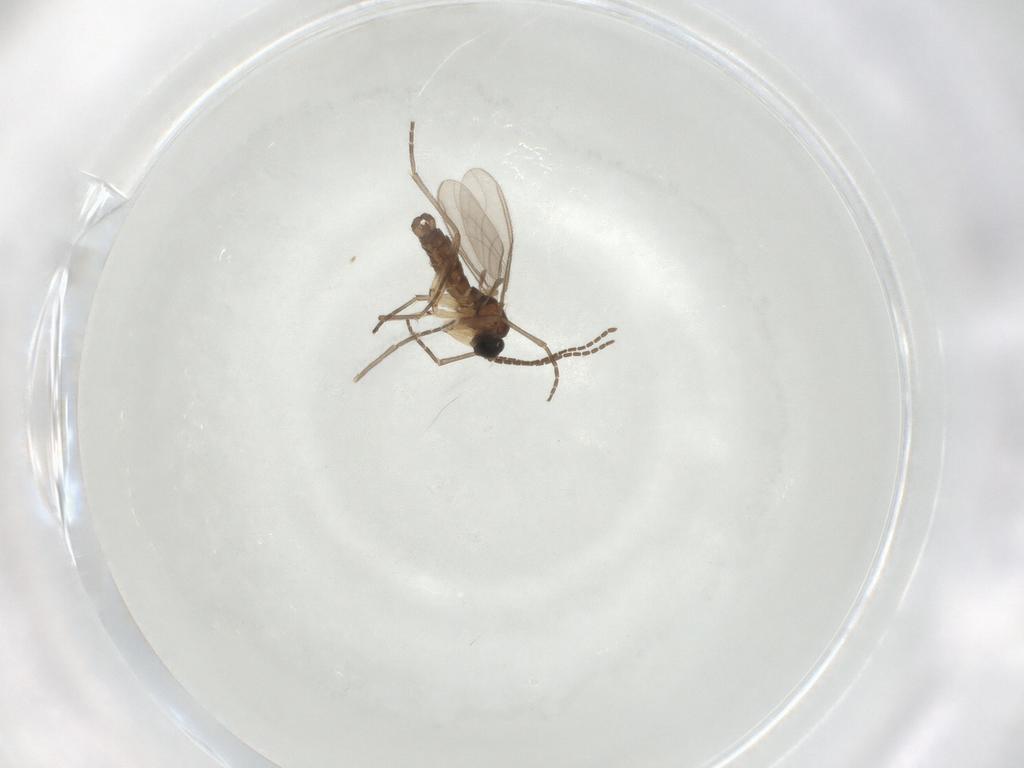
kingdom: Animalia
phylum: Arthropoda
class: Insecta
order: Diptera
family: Sciaridae
